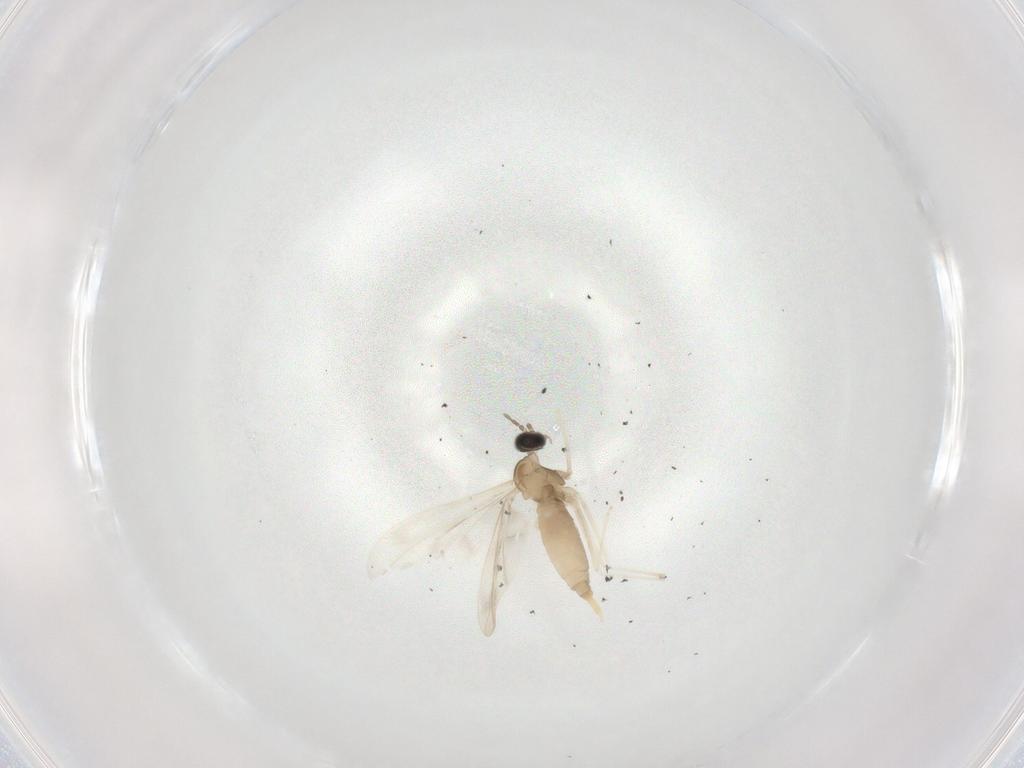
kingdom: Animalia
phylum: Arthropoda
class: Insecta
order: Diptera
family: Cecidomyiidae
